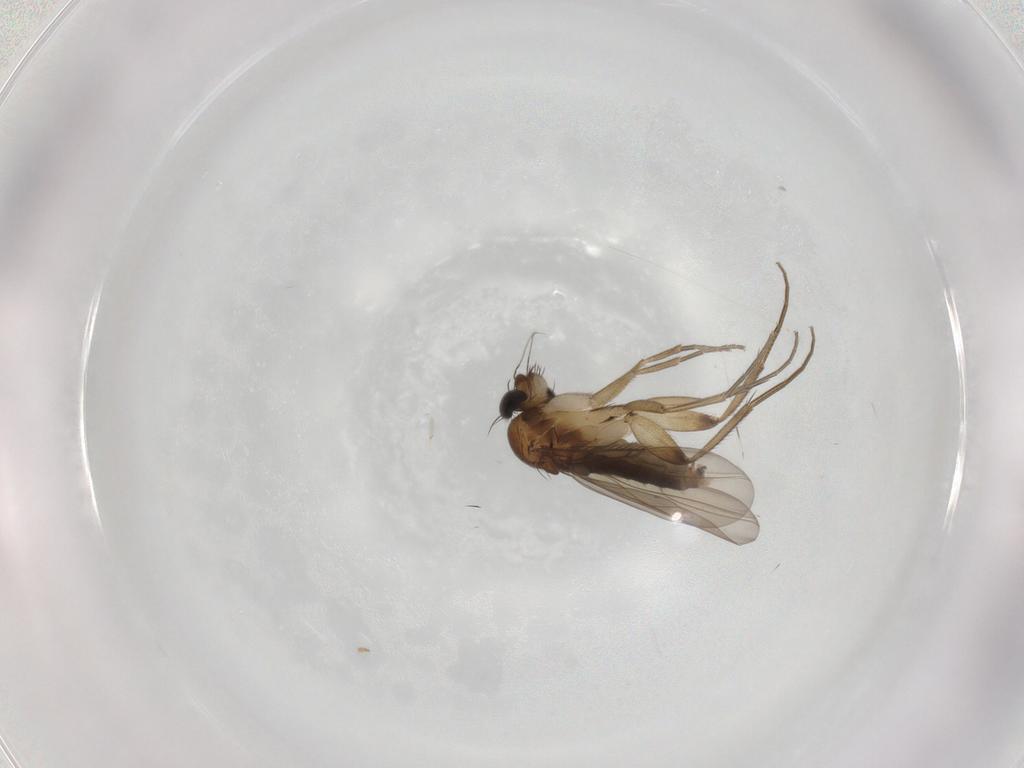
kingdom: Animalia
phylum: Arthropoda
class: Insecta
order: Diptera
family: Phoridae
